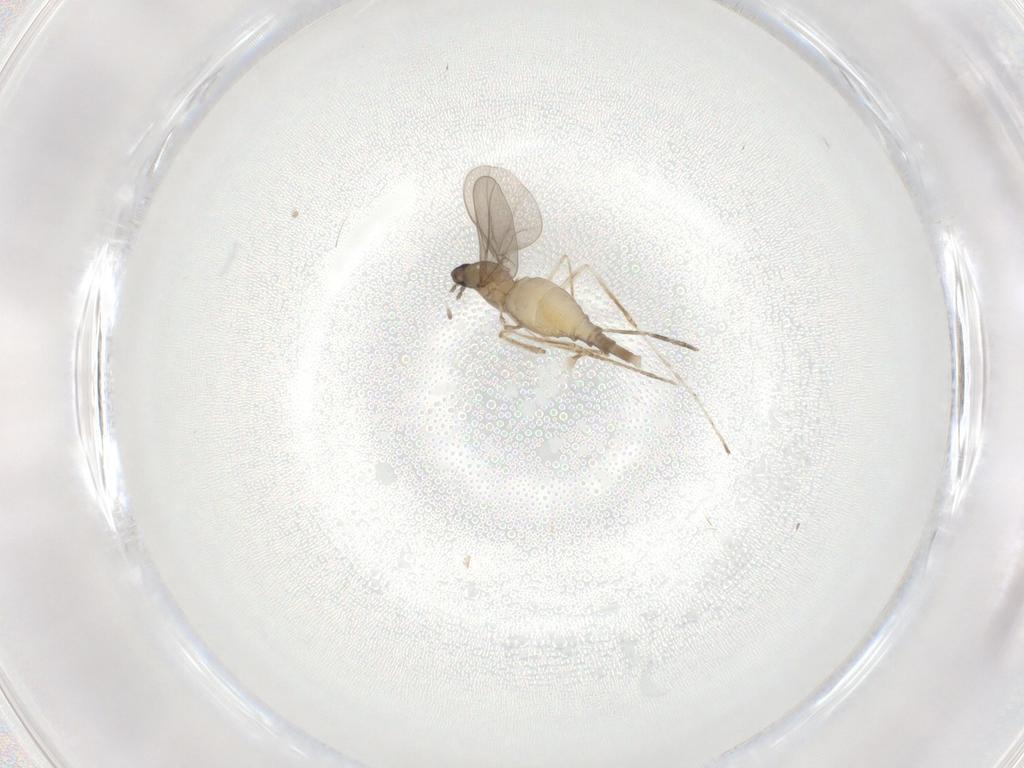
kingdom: Animalia
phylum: Arthropoda
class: Insecta
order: Diptera
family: Cecidomyiidae
